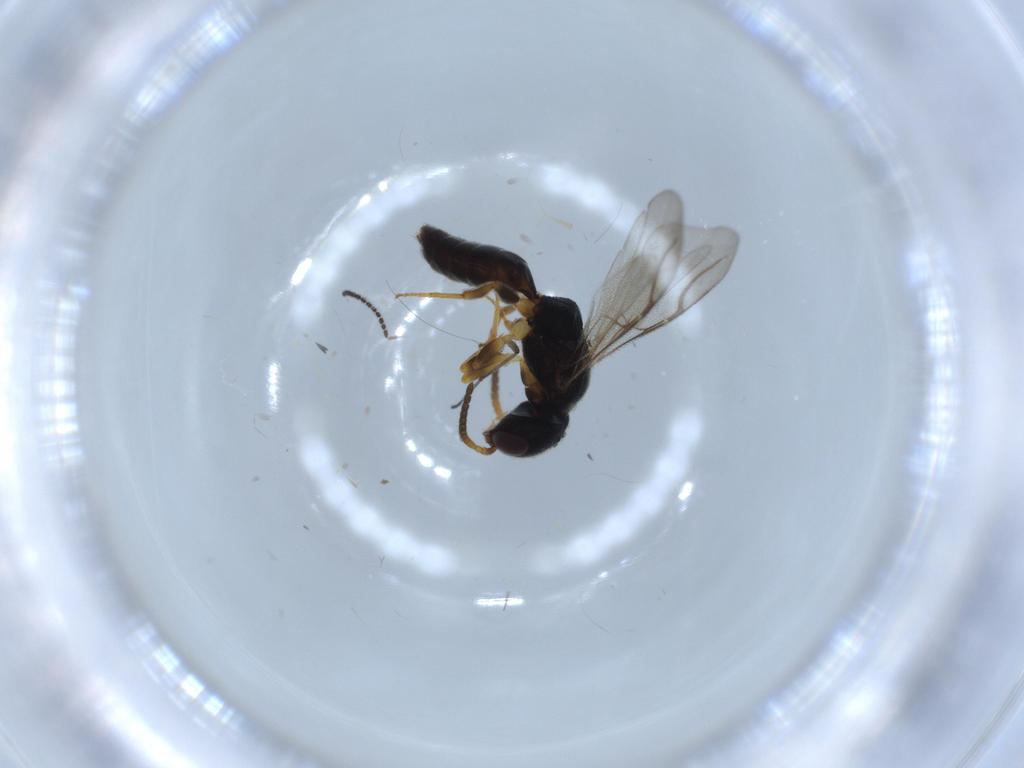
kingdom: Animalia
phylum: Arthropoda
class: Insecta
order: Hymenoptera
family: Bethylidae
